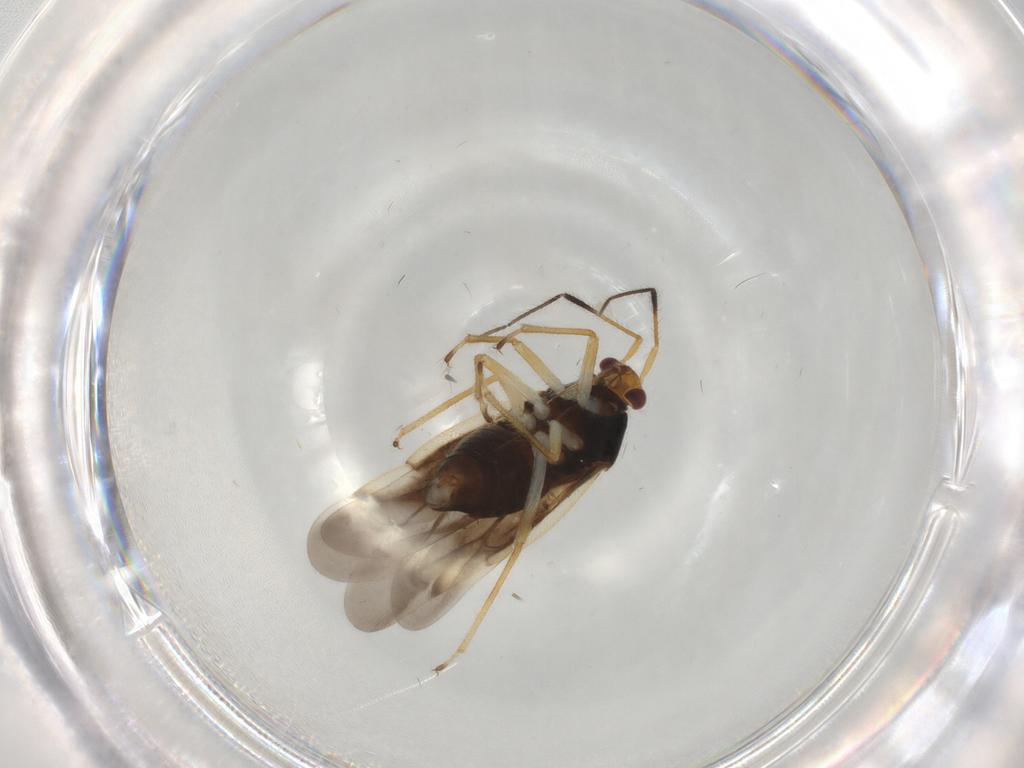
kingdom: Animalia
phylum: Arthropoda
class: Insecta
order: Hemiptera
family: Miridae
